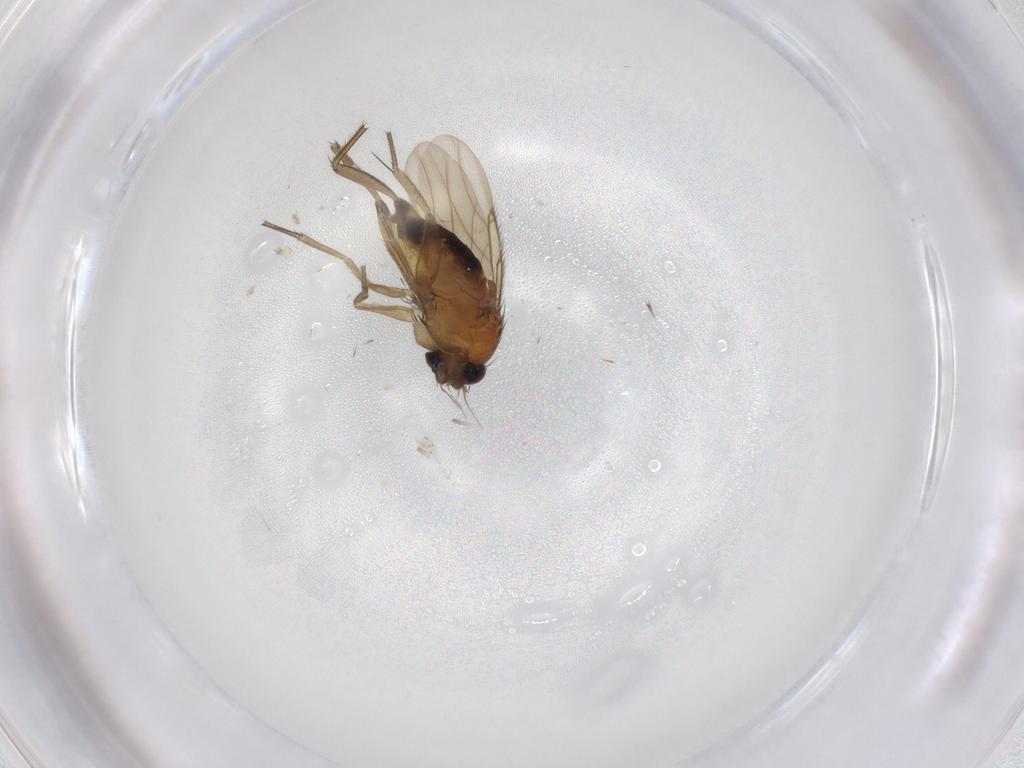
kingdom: Animalia
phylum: Arthropoda
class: Insecta
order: Diptera
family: Phoridae
